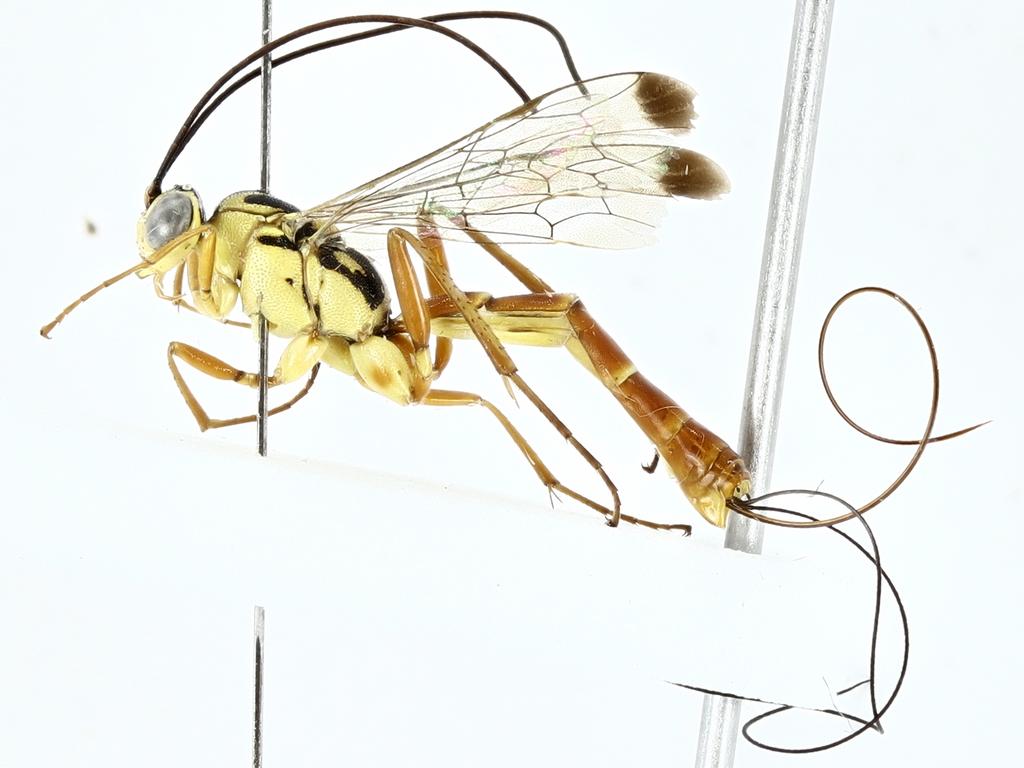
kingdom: Animalia
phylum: Arthropoda
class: Insecta
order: Hymenoptera
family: Ichneumonidae
